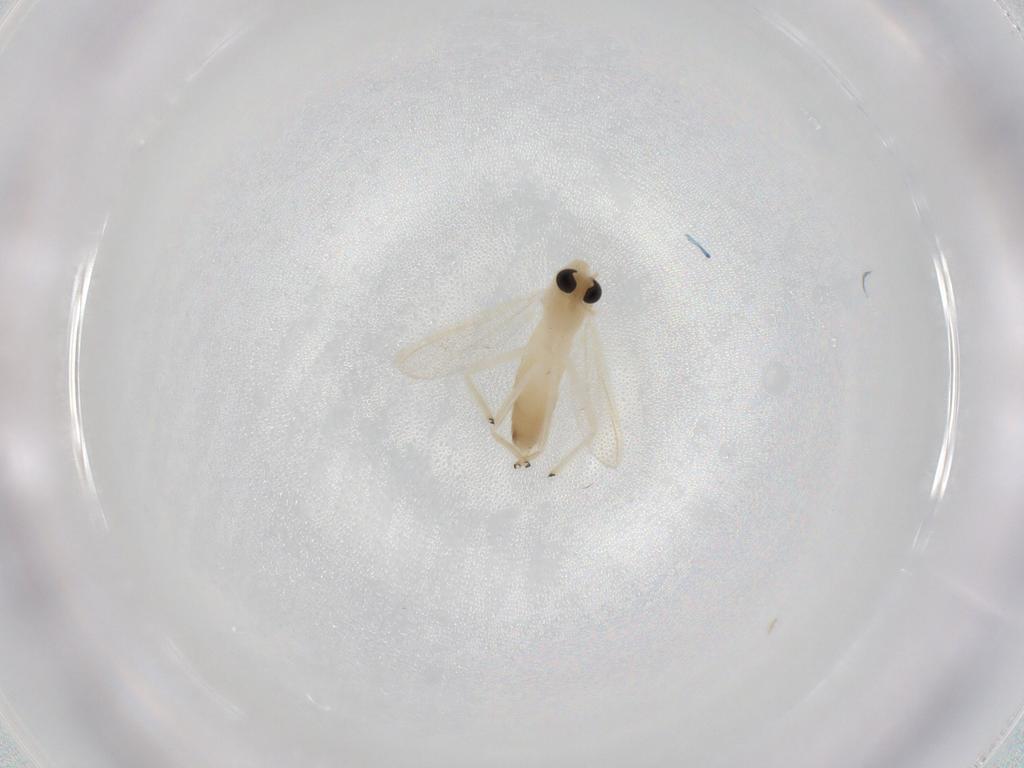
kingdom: Animalia
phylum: Arthropoda
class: Insecta
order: Diptera
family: Chironomidae
